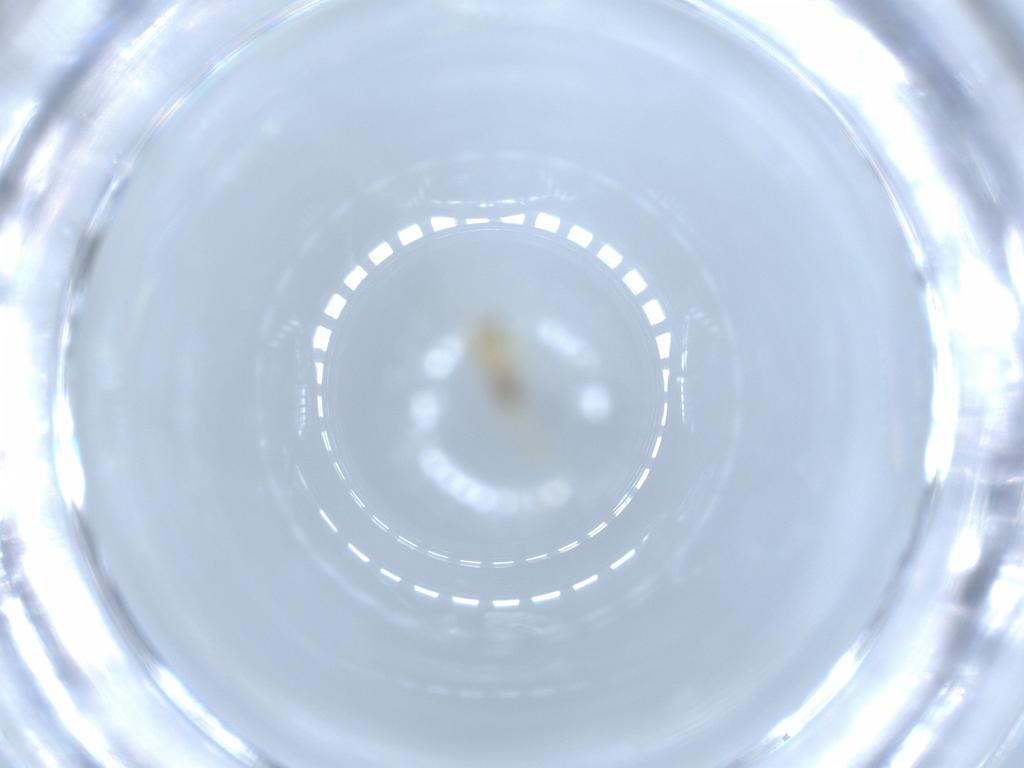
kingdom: Animalia
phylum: Arthropoda
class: Insecta
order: Hemiptera
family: Aleyrodidae
